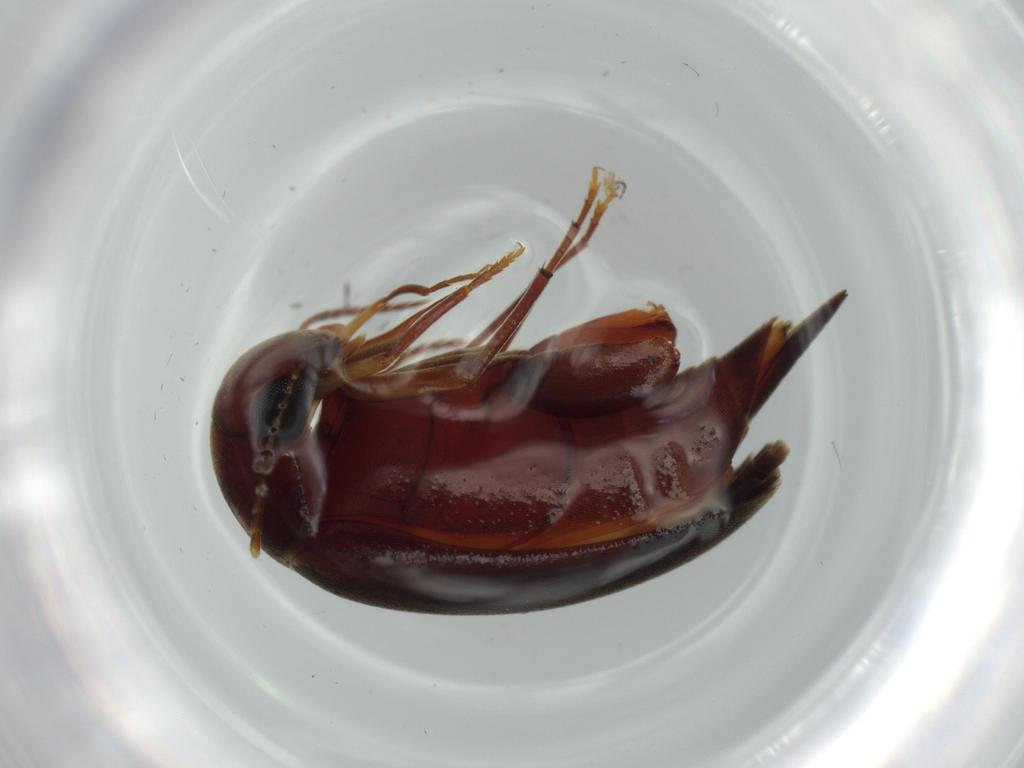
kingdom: Animalia
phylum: Arthropoda
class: Insecta
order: Coleoptera
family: Mordellidae
